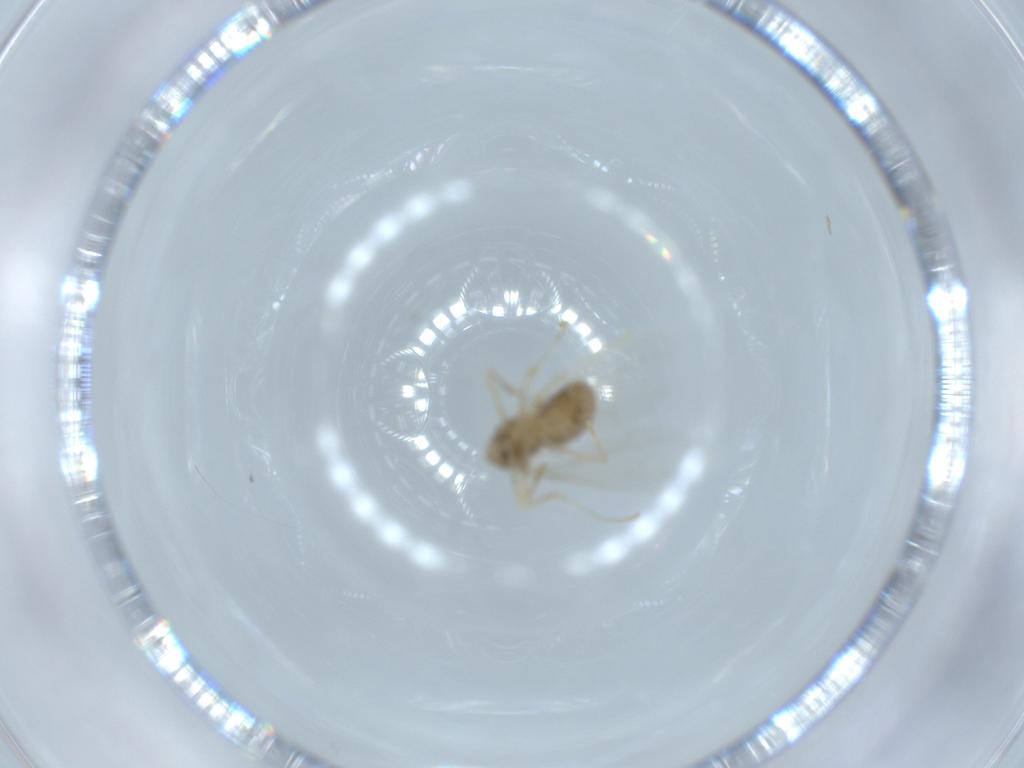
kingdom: Animalia
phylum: Arthropoda
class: Insecta
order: Diptera
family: Cecidomyiidae
